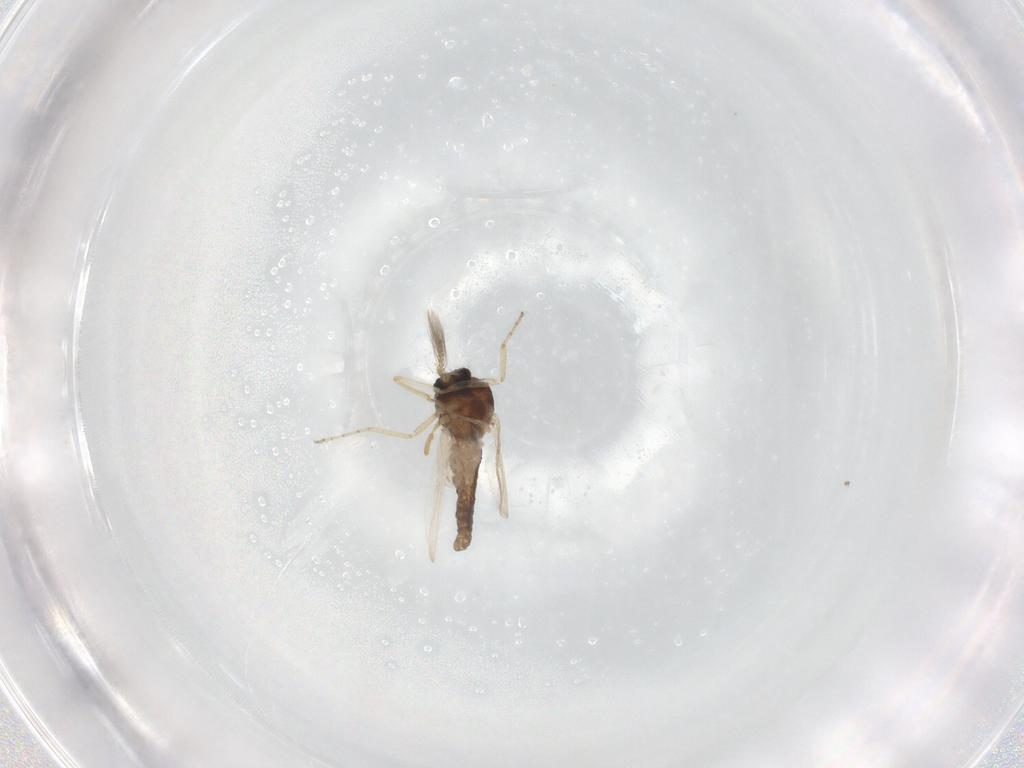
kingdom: Animalia
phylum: Arthropoda
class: Insecta
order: Diptera
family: Ceratopogonidae
